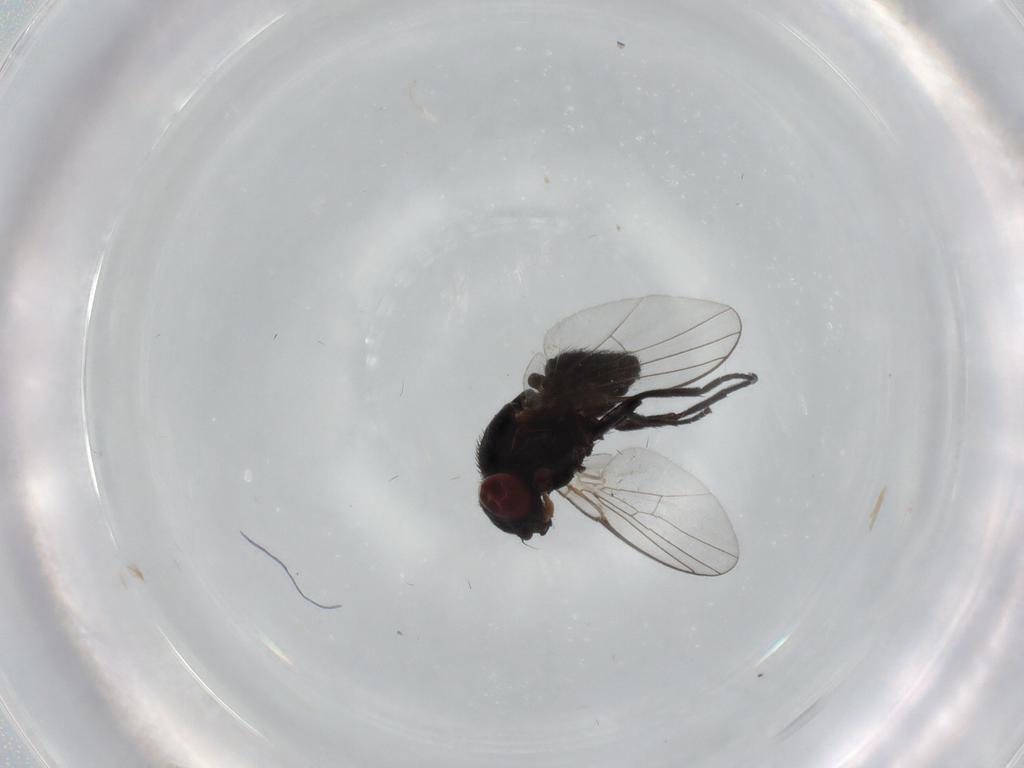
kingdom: Animalia
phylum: Arthropoda
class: Insecta
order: Diptera
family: Agromyzidae
